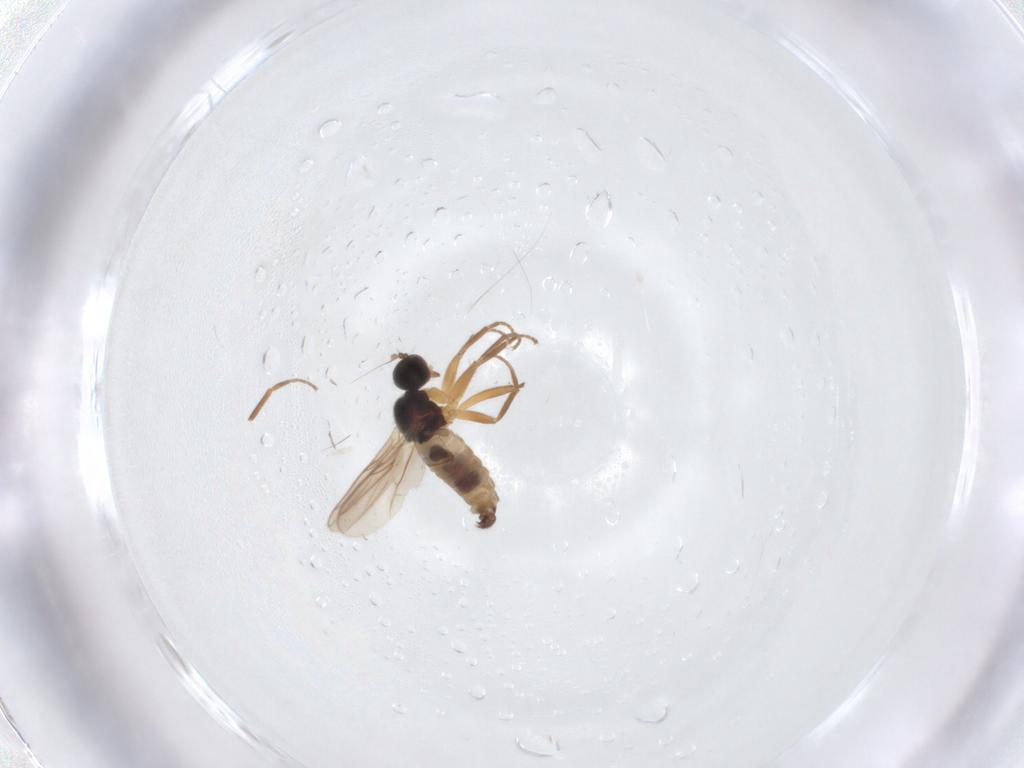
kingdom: Animalia
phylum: Arthropoda
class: Insecta
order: Diptera
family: Hybotidae
